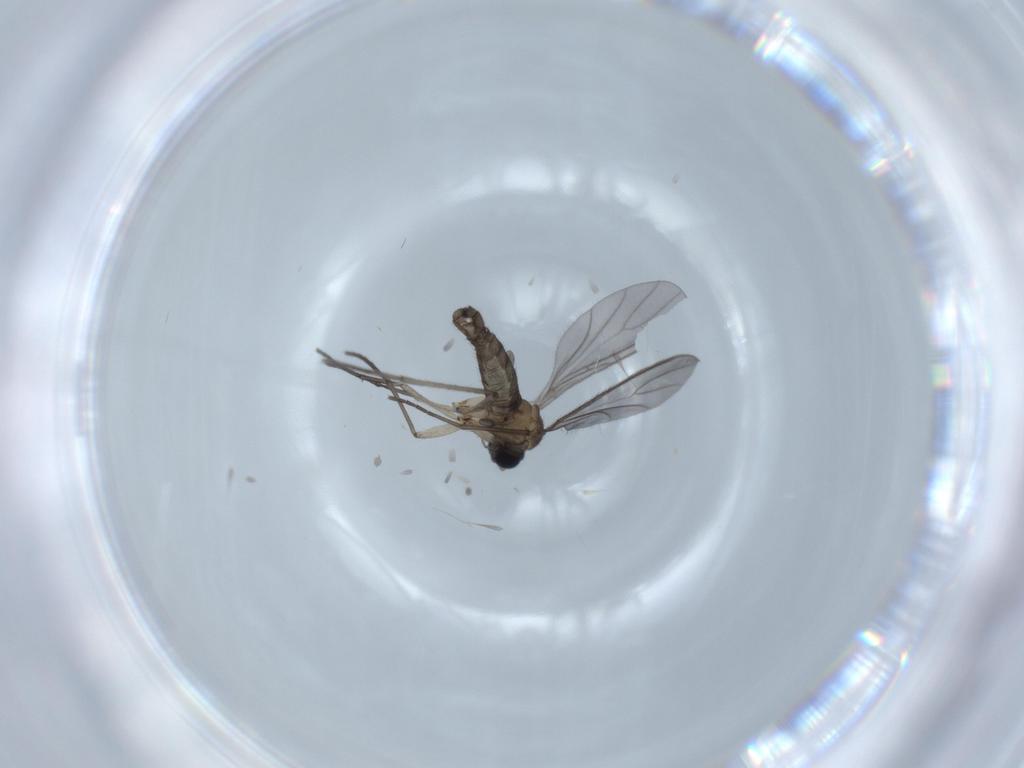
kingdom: Animalia
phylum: Arthropoda
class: Insecta
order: Diptera
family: Sciaridae
